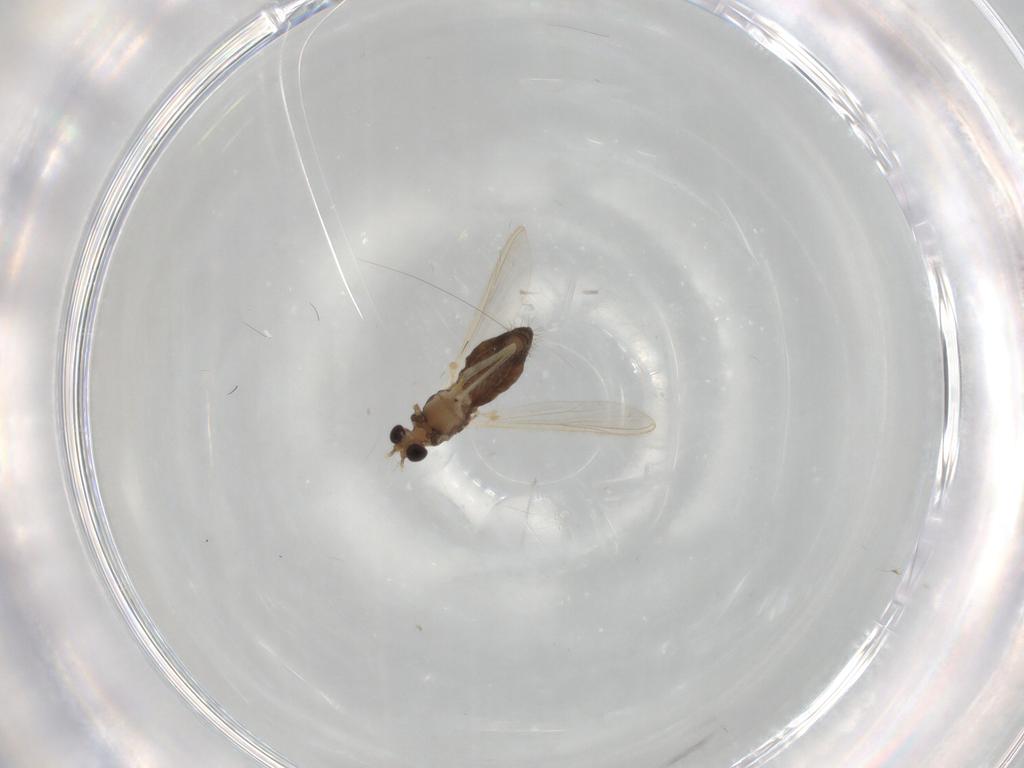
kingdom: Animalia
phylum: Arthropoda
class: Insecta
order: Diptera
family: Chironomidae
